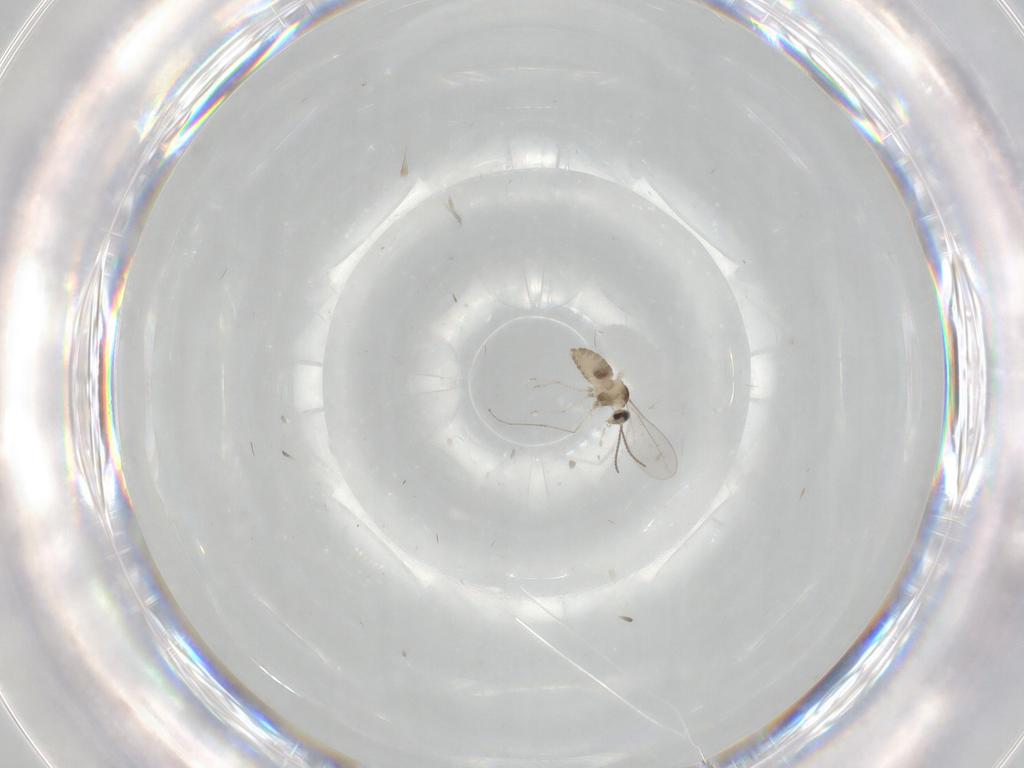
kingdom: Animalia
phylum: Arthropoda
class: Insecta
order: Diptera
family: Cecidomyiidae
